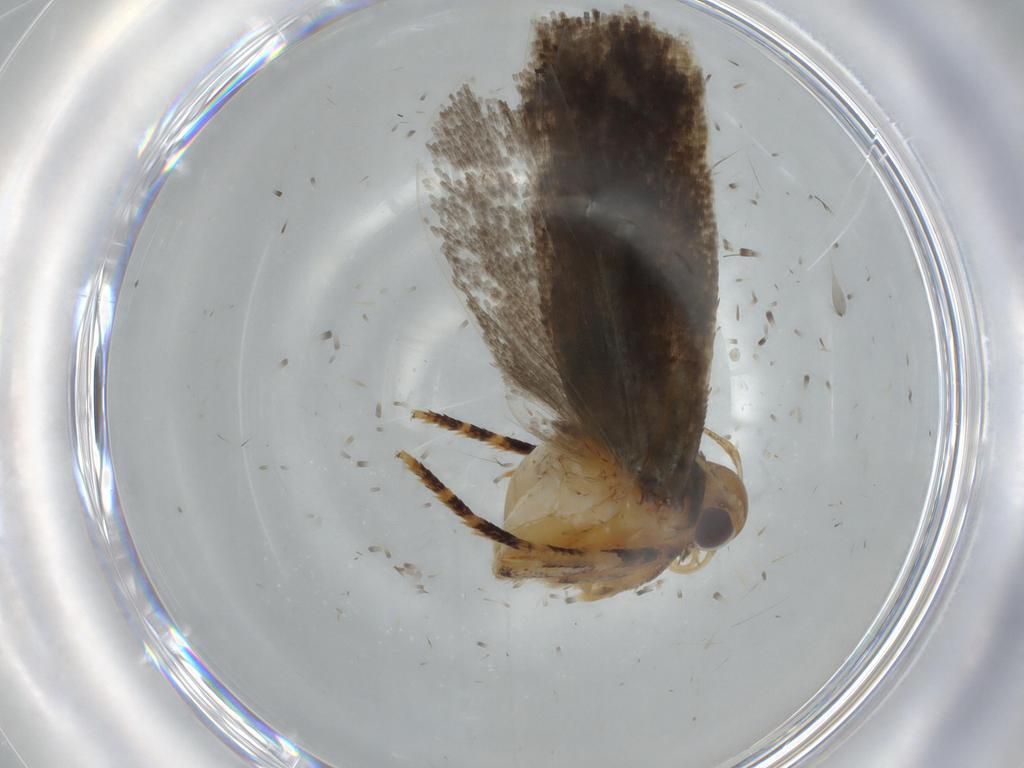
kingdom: Animalia
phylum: Arthropoda
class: Insecta
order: Lepidoptera
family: Gelechiidae
